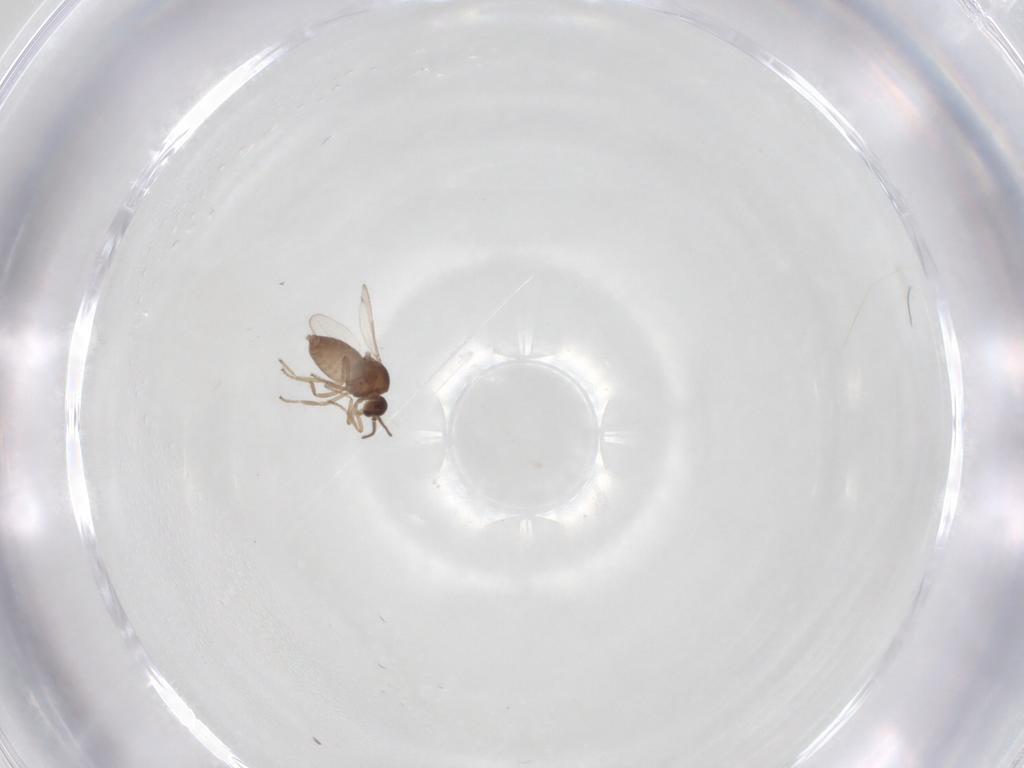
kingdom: Animalia
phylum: Arthropoda
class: Insecta
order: Diptera
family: Ceratopogonidae
